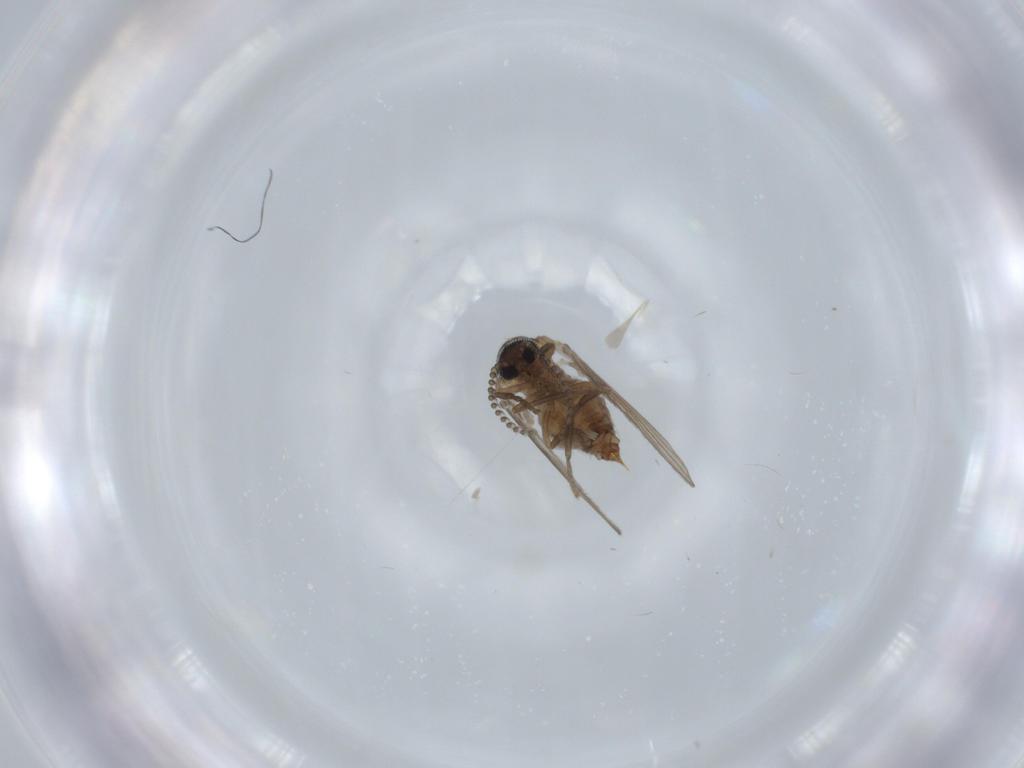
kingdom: Animalia
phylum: Arthropoda
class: Insecta
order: Diptera
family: Psychodidae
